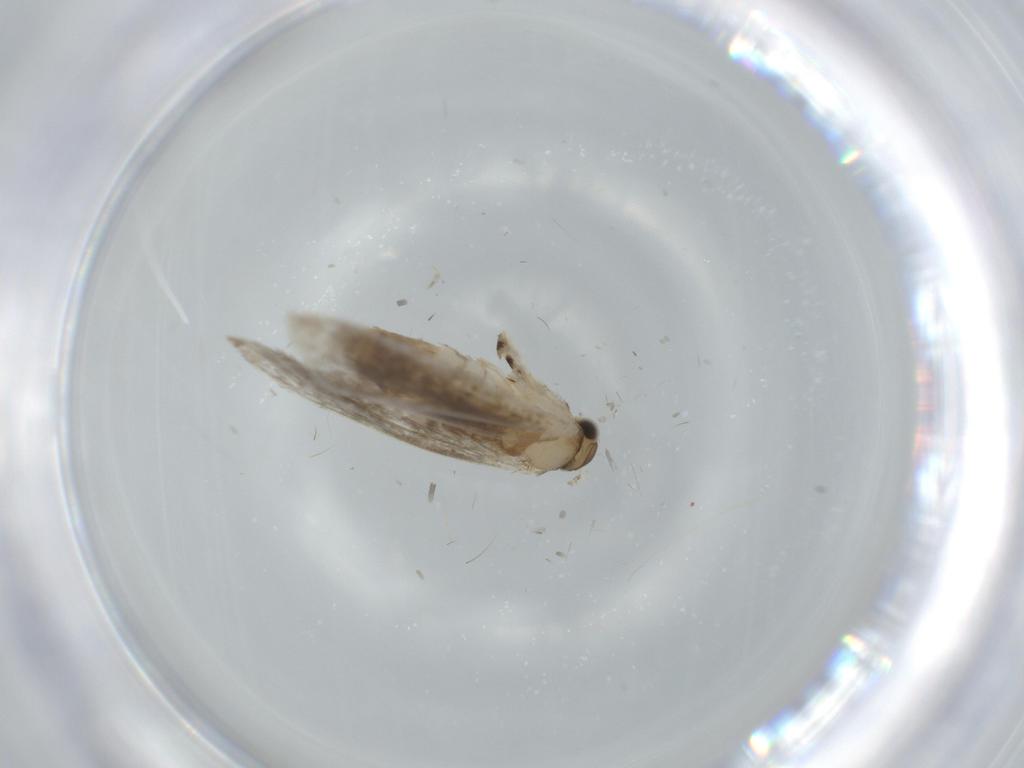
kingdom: Animalia
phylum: Arthropoda
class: Insecta
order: Lepidoptera
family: Tineidae
